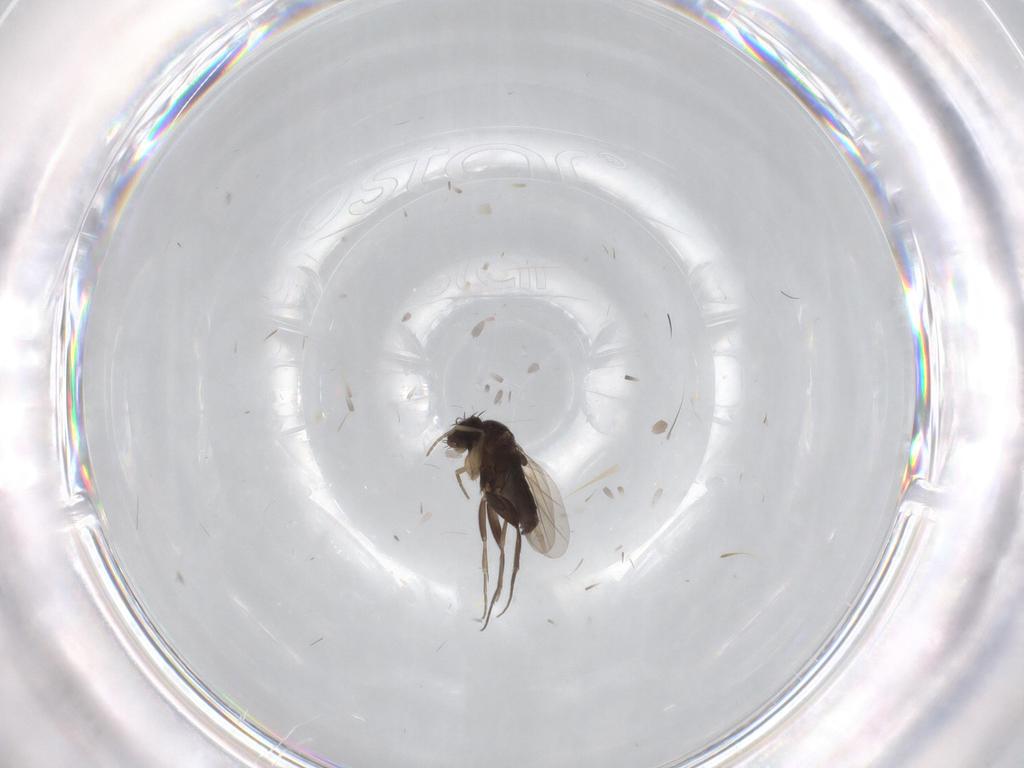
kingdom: Animalia
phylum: Arthropoda
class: Insecta
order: Diptera
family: Phoridae
